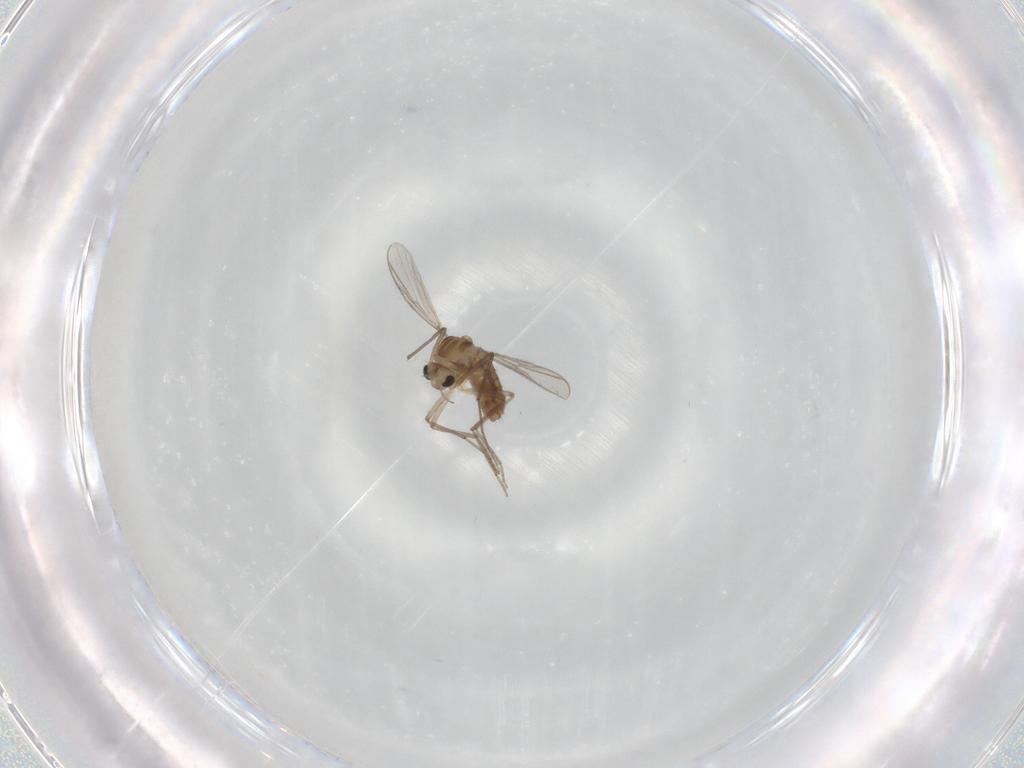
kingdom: Animalia
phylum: Arthropoda
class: Insecta
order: Diptera
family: Chironomidae
